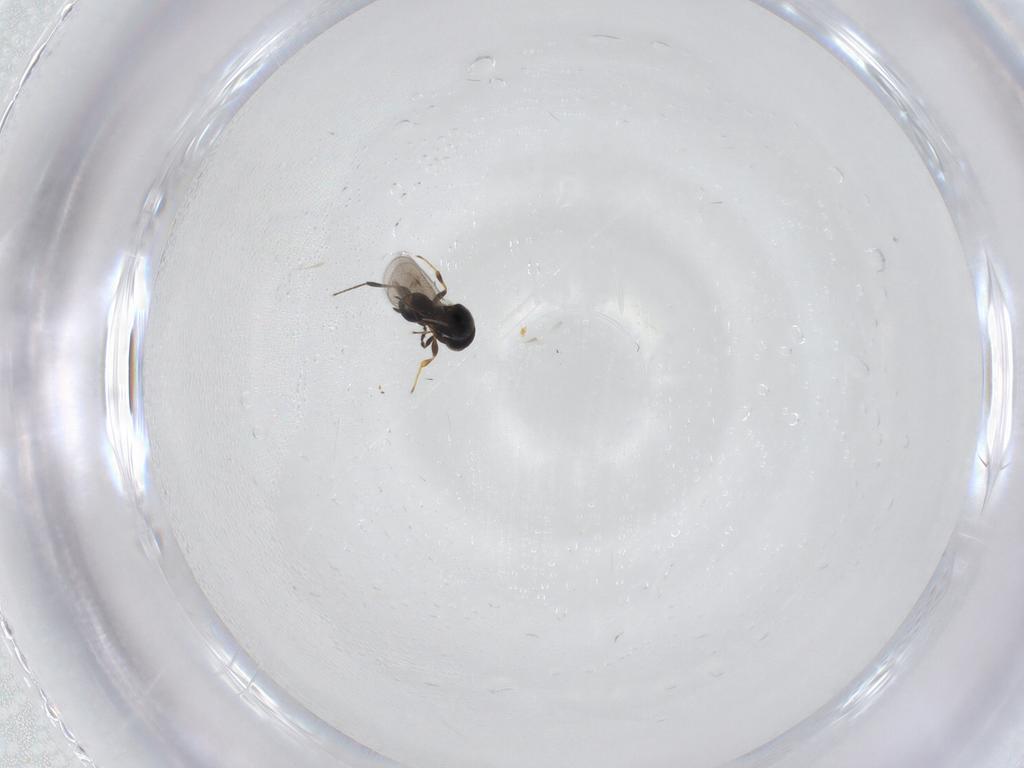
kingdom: Animalia
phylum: Arthropoda
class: Insecta
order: Hymenoptera
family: Platygastridae
